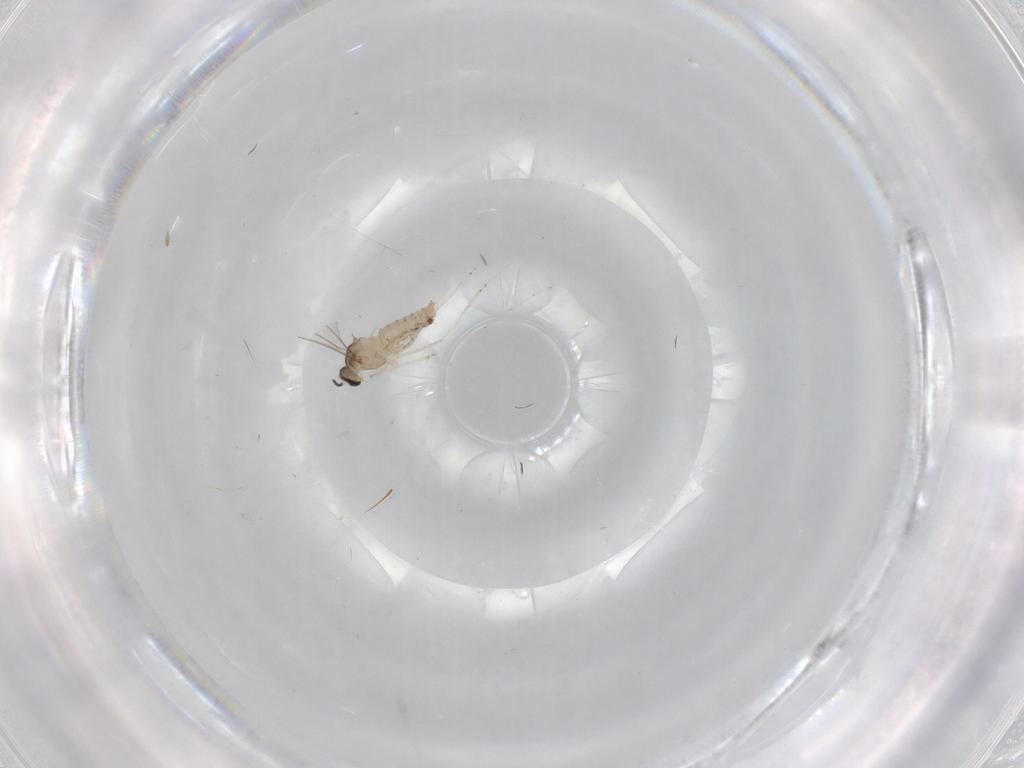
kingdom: Animalia
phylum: Arthropoda
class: Insecta
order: Diptera
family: Cecidomyiidae
